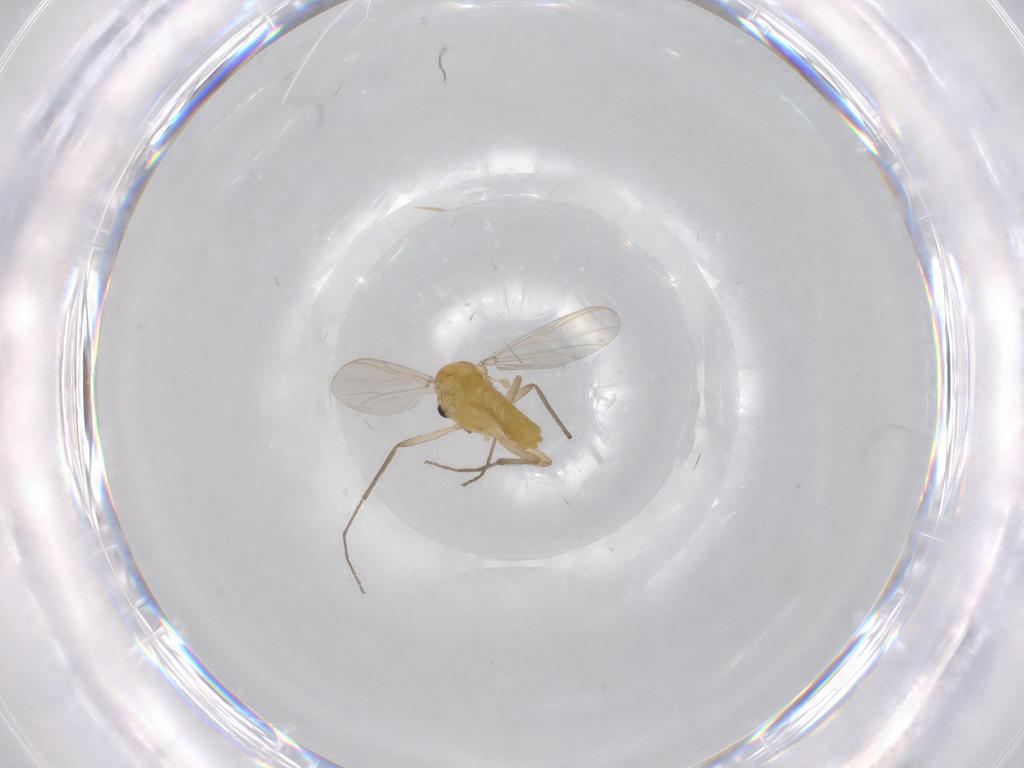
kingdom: Animalia
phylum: Arthropoda
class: Insecta
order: Diptera
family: Chironomidae
